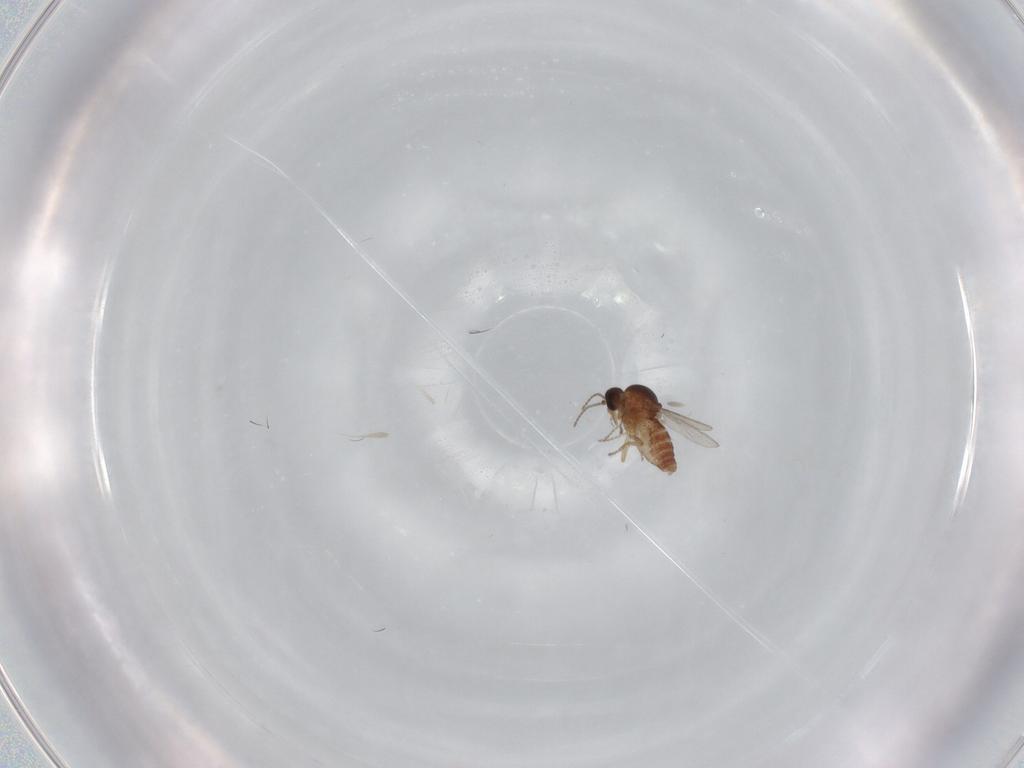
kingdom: Animalia
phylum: Arthropoda
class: Insecta
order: Diptera
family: Ceratopogonidae
